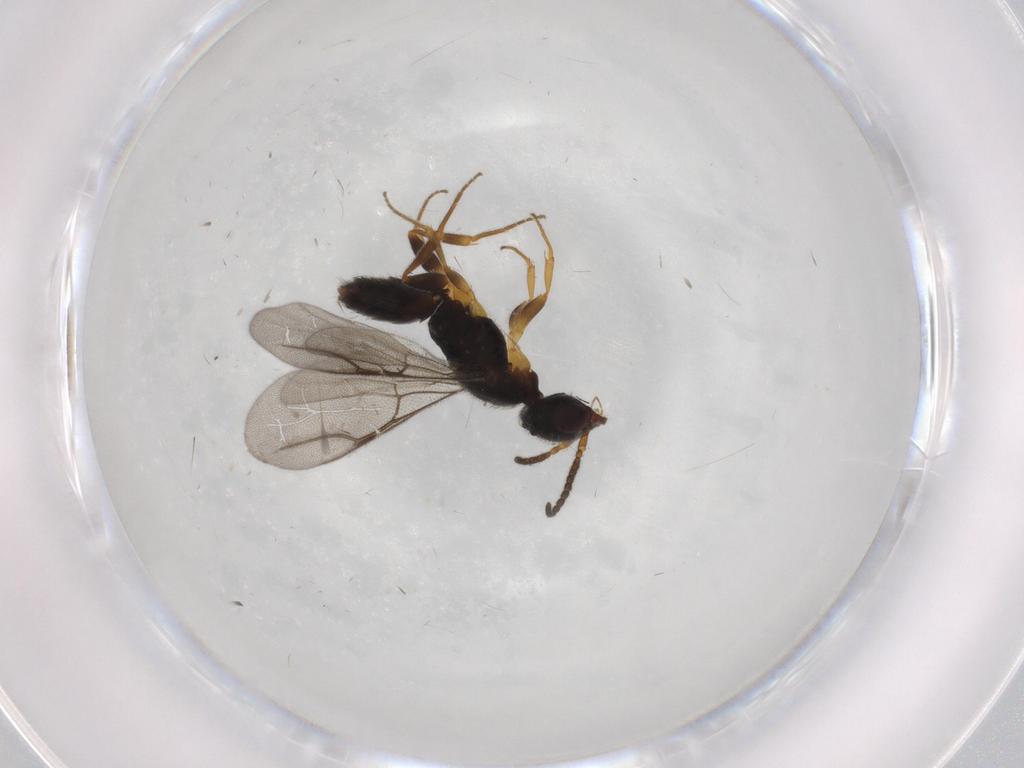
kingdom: Animalia
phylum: Arthropoda
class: Insecta
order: Hymenoptera
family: Bethylidae
